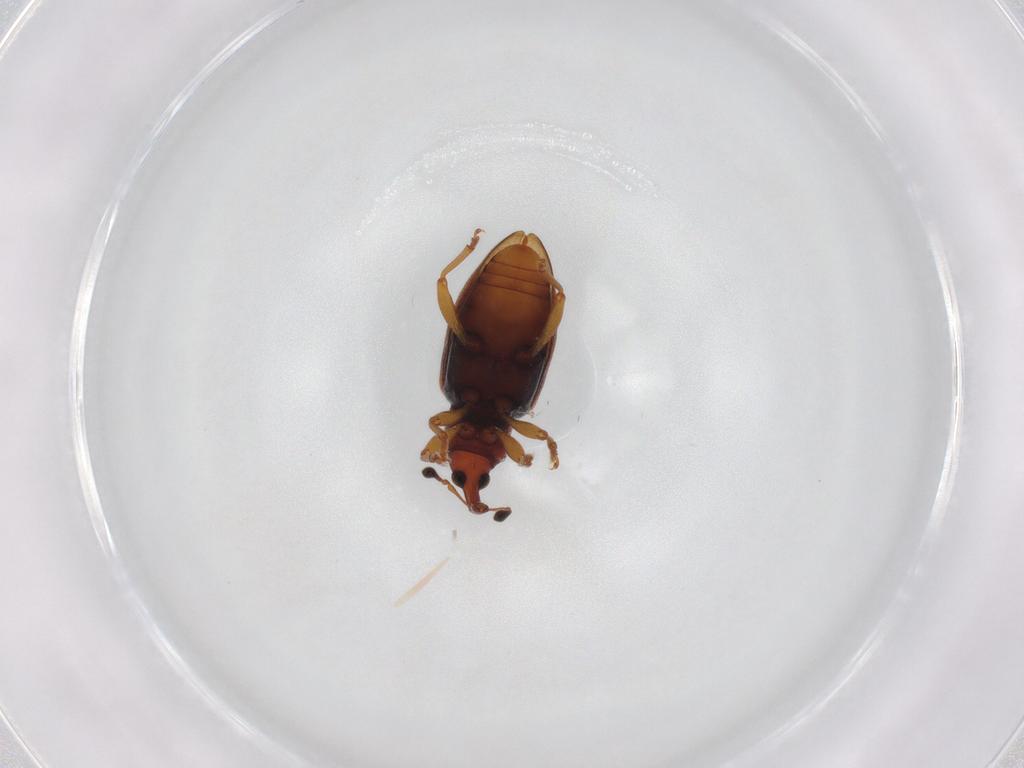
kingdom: Animalia
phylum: Arthropoda
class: Insecta
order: Coleoptera
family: Curculionidae
